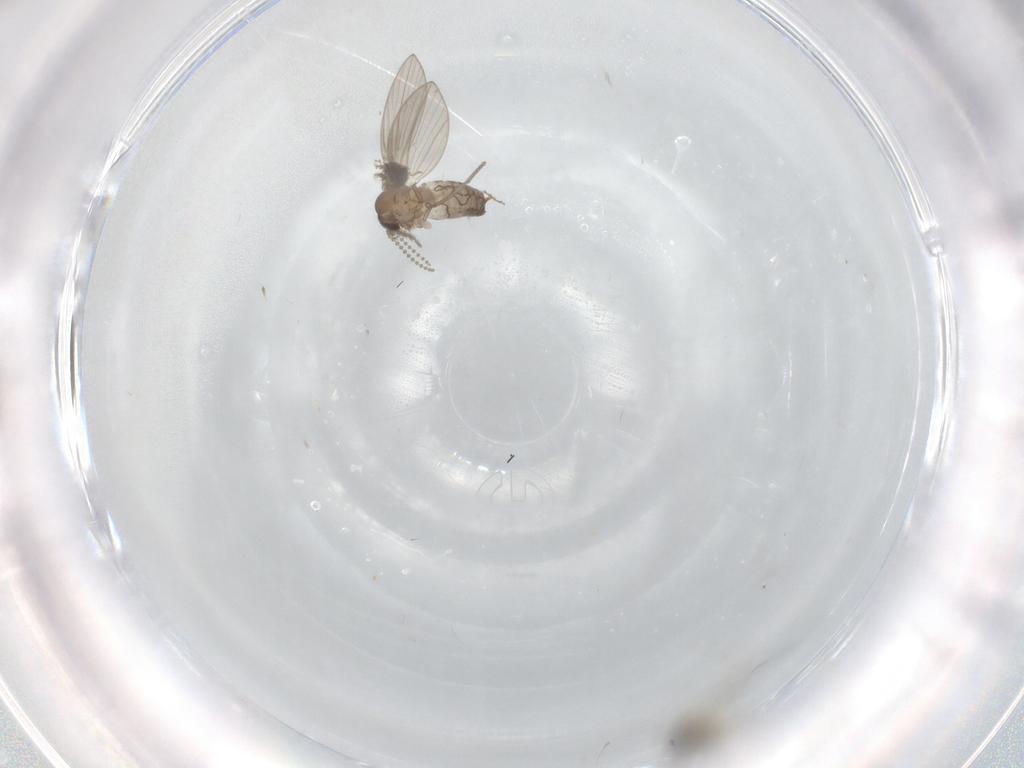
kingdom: Animalia
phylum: Arthropoda
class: Insecta
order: Diptera
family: Psychodidae
